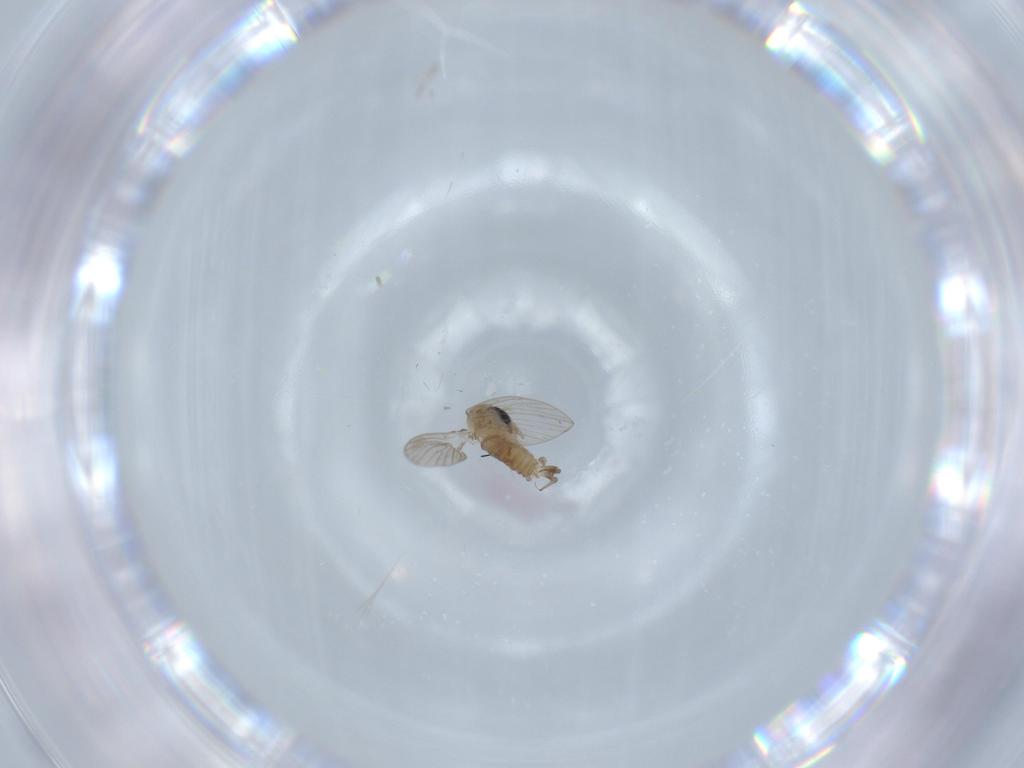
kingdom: Animalia
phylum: Arthropoda
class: Insecta
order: Diptera
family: Psychodidae
